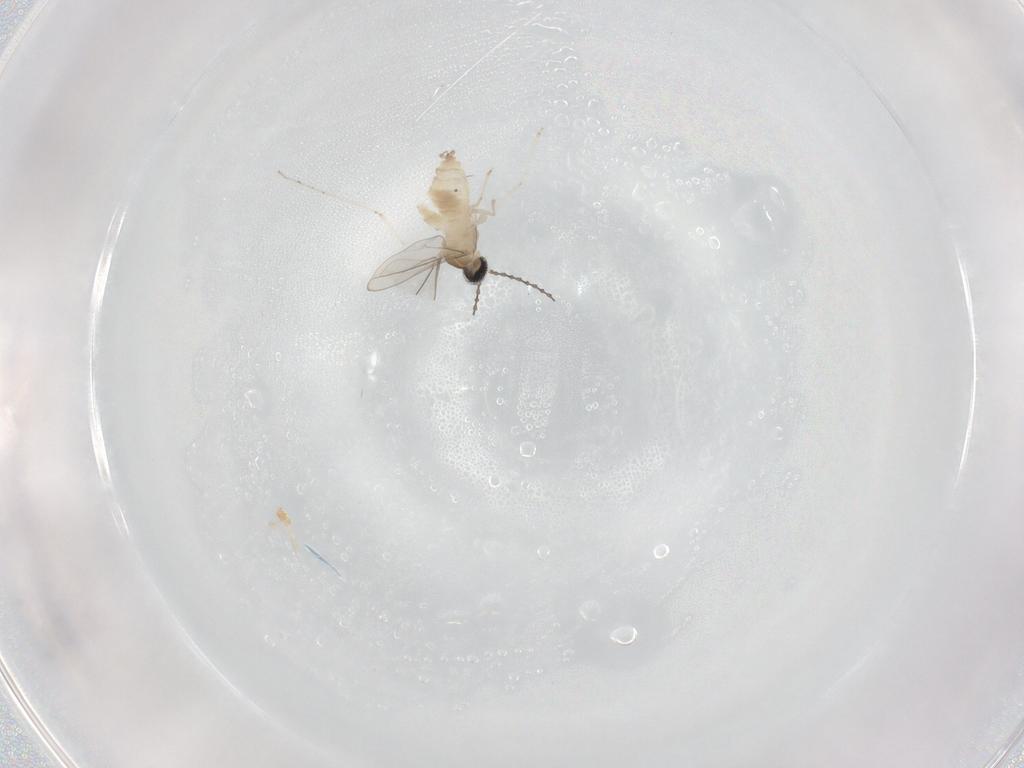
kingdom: Animalia
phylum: Arthropoda
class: Insecta
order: Diptera
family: Cecidomyiidae
